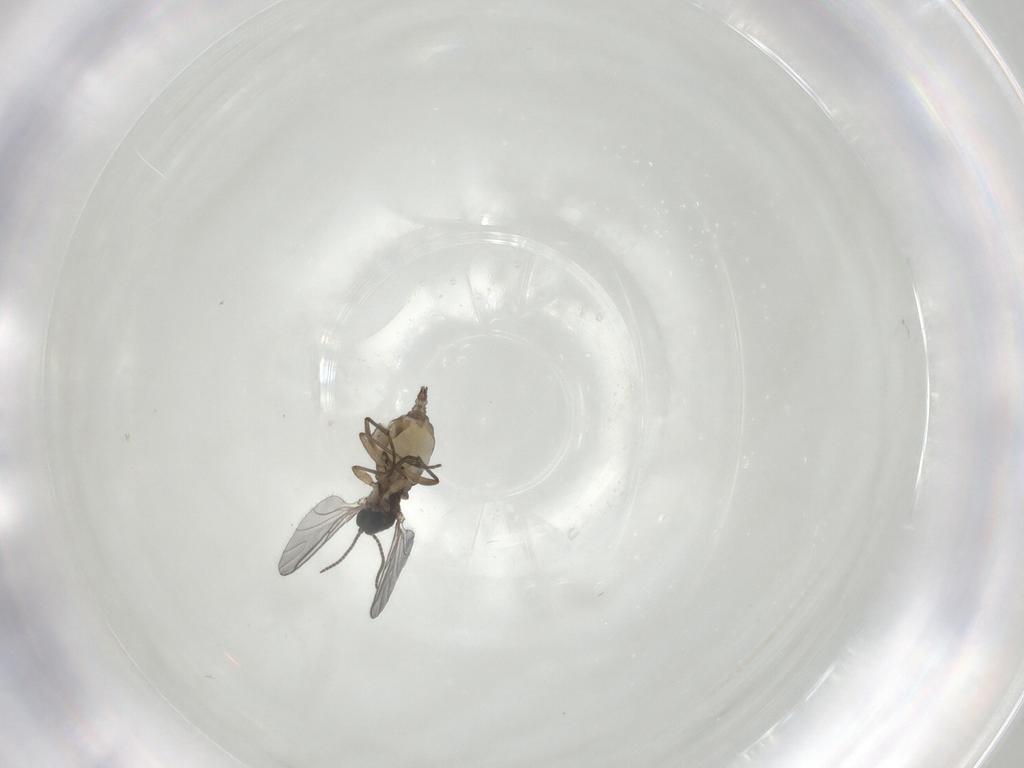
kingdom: Animalia
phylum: Arthropoda
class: Insecta
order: Diptera
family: Sciaridae
